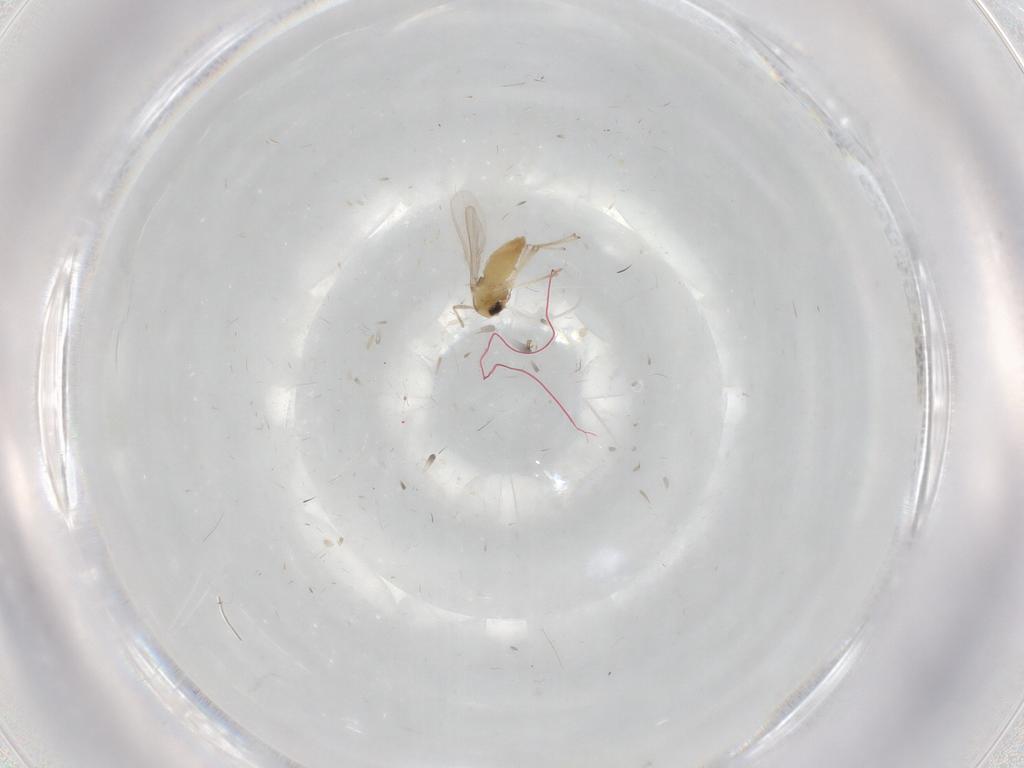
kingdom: Animalia
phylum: Arthropoda
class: Insecta
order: Diptera
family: Chironomidae
